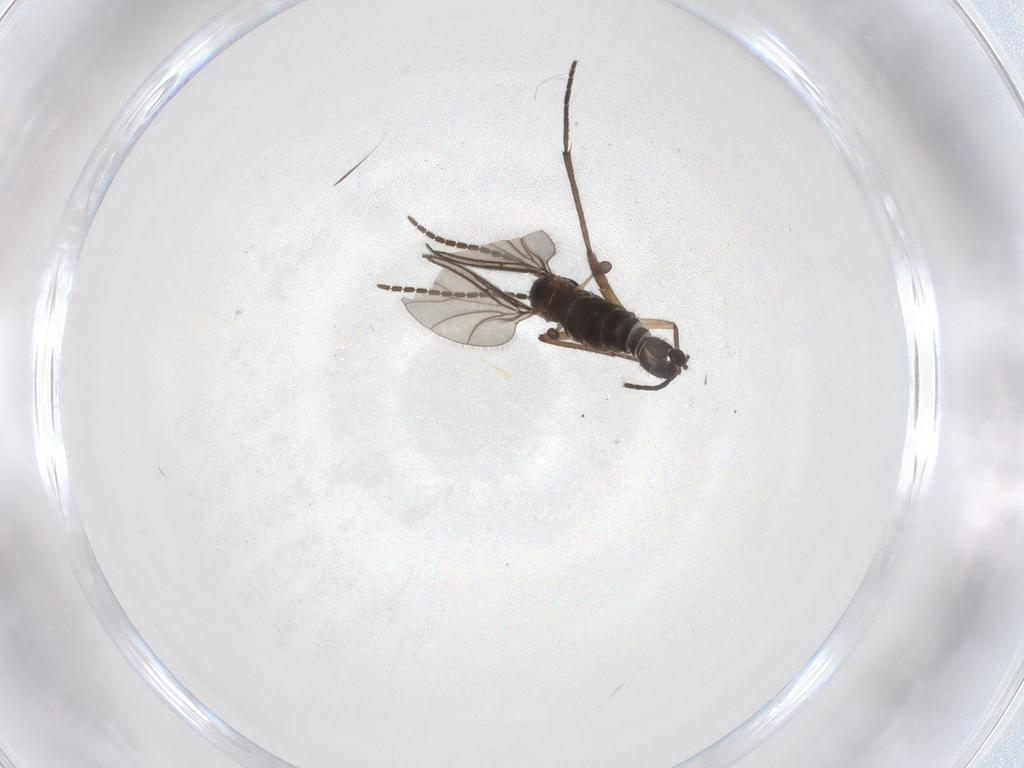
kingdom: Animalia
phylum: Arthropoda
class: Insecta
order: Diptera
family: Sciaridae
